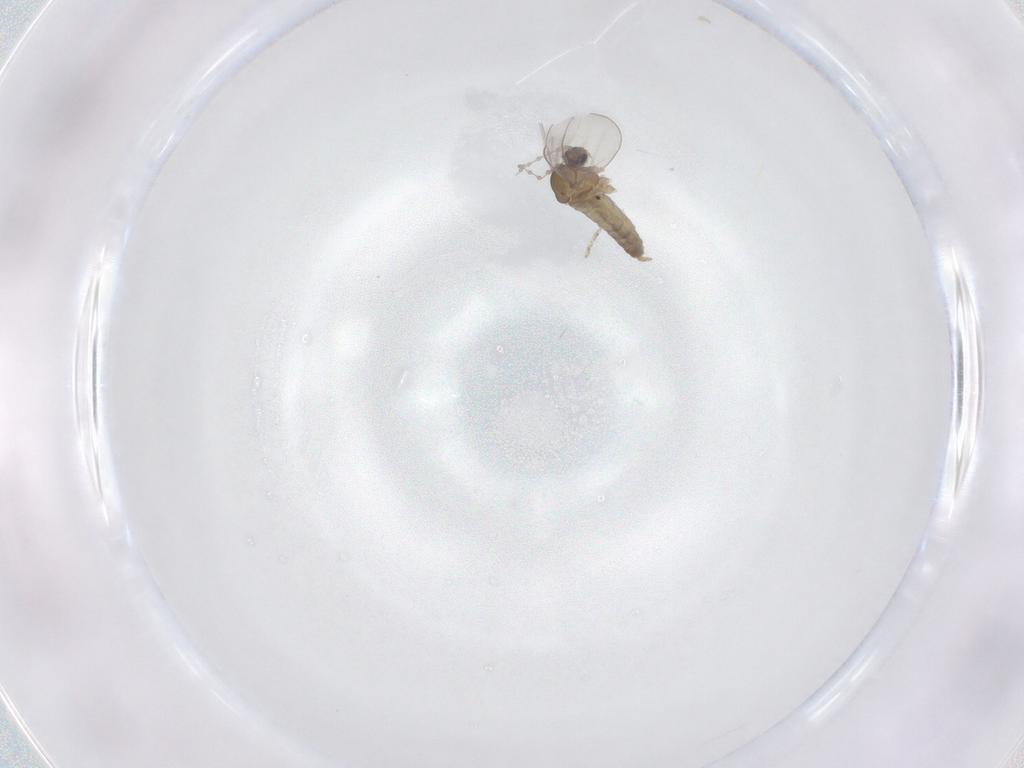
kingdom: Animalia
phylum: Arthropoda
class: Insecta
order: Diptera
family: Cecidomyiidae
